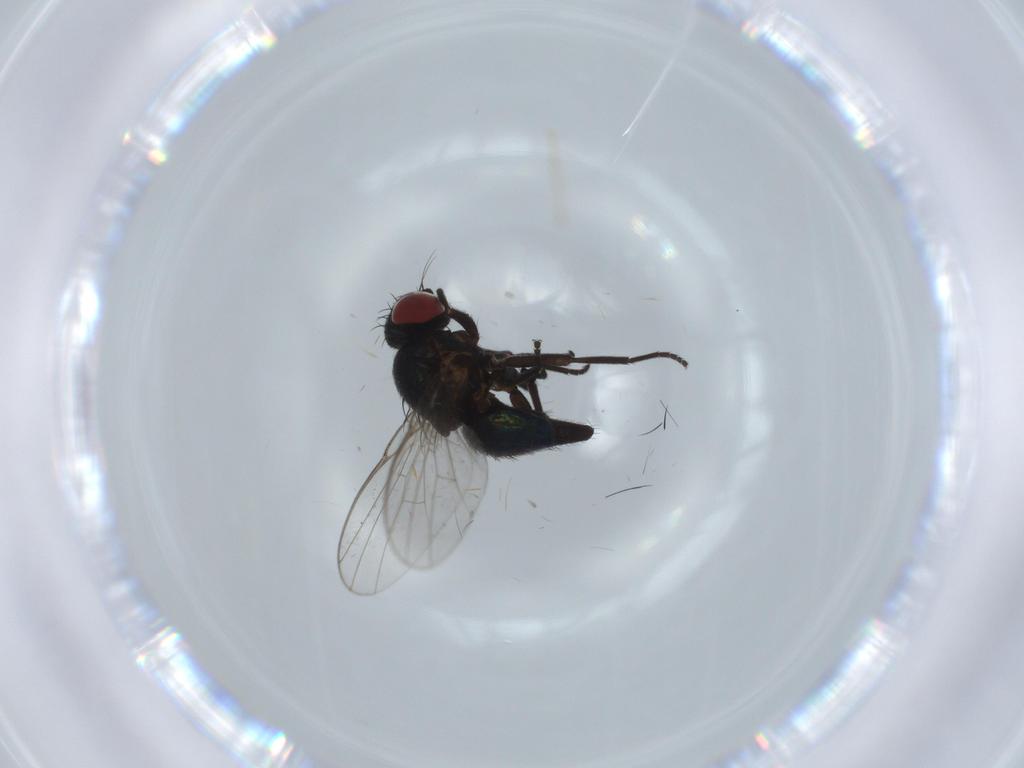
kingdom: Animalia
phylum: Arthropoda
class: Insecta
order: Diptera
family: Agromyzidae
